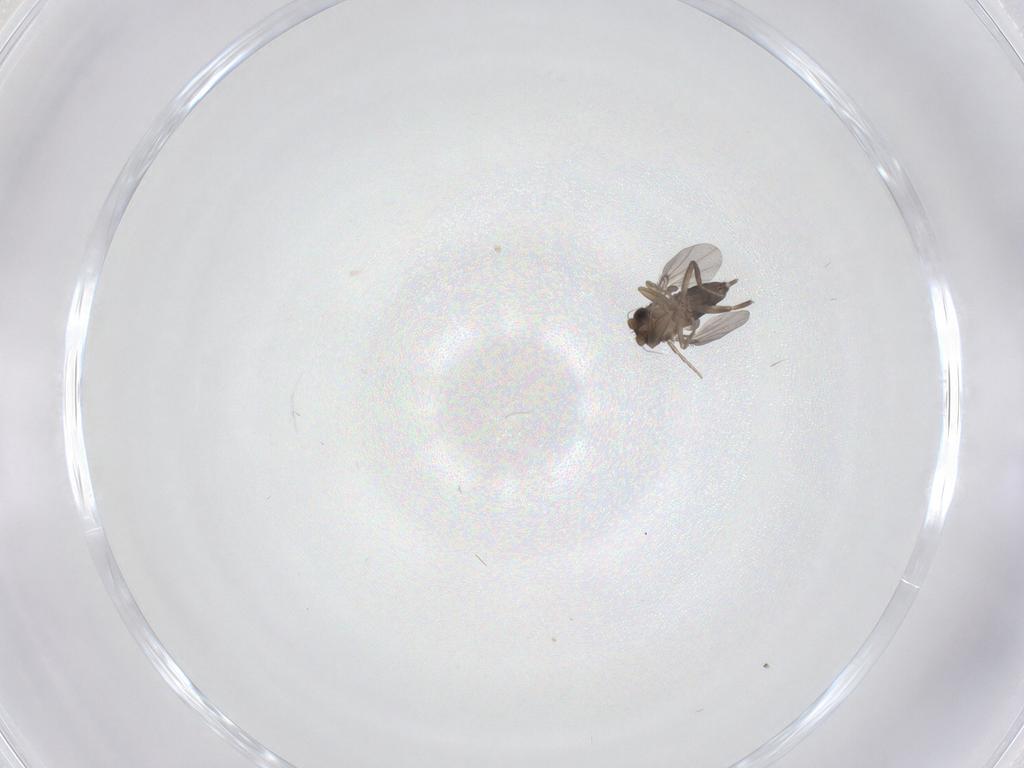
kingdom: Animalia
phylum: Arthropoda
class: Insecta
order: Diptera
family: Phoridae
